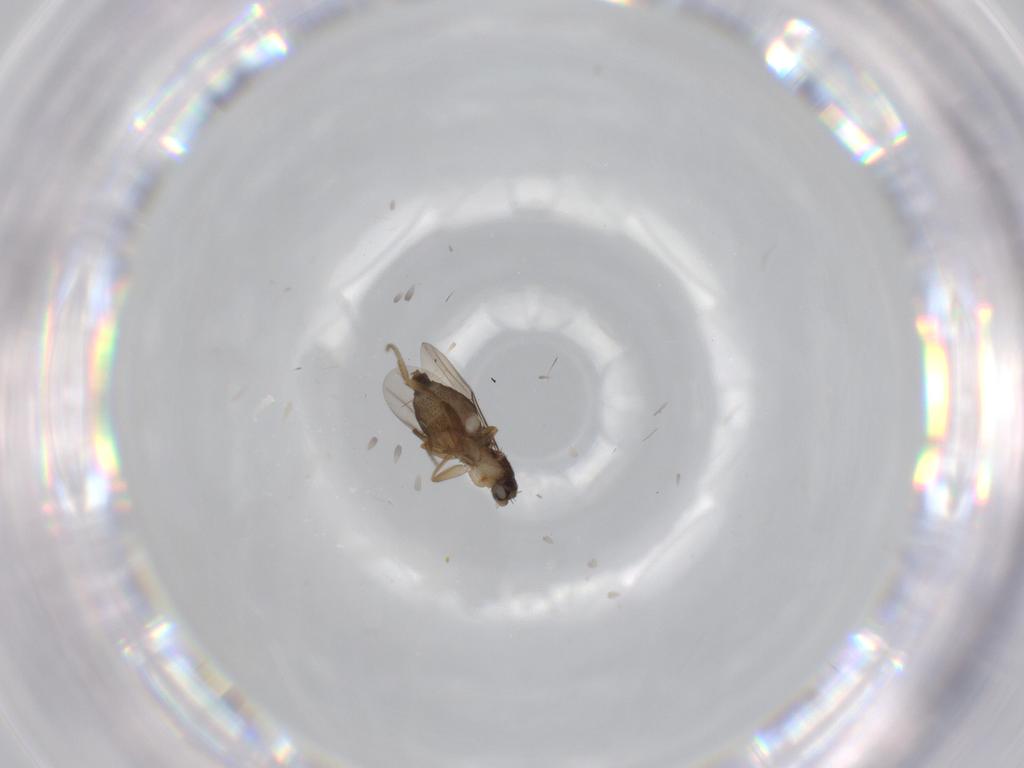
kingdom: Animalia
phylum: Arthropoda
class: Insecta
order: Diptera
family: Phoridae
